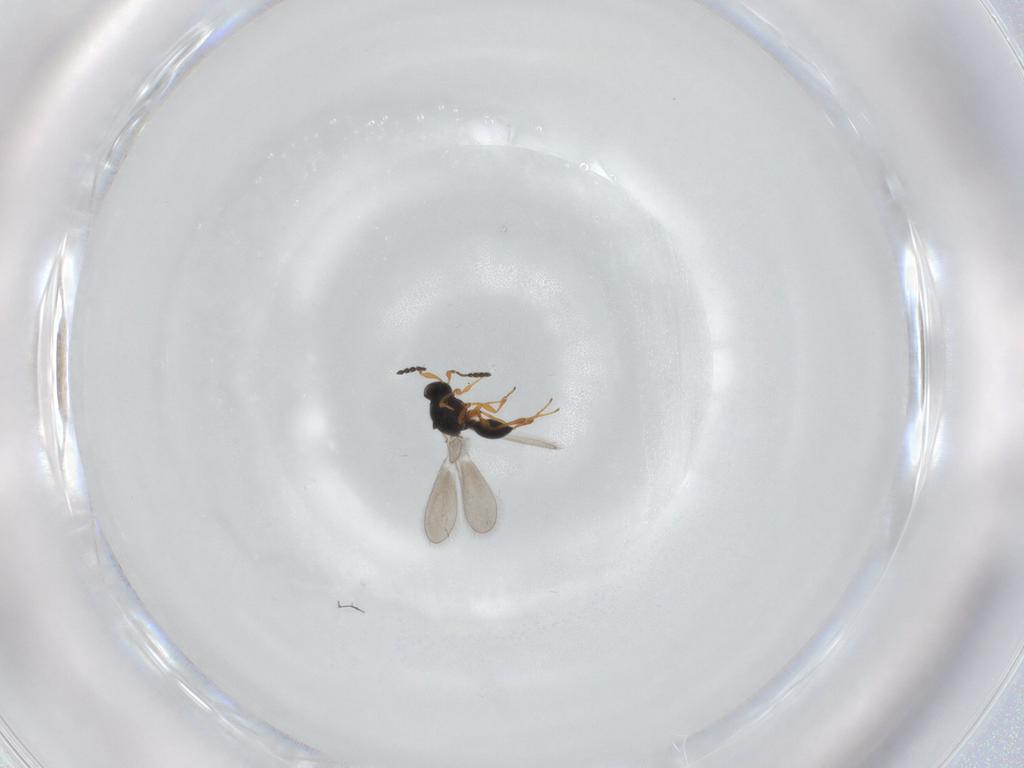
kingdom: Animalia
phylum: Arthropoda
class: Insecta
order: Hymenoptera
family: Platygastridae
